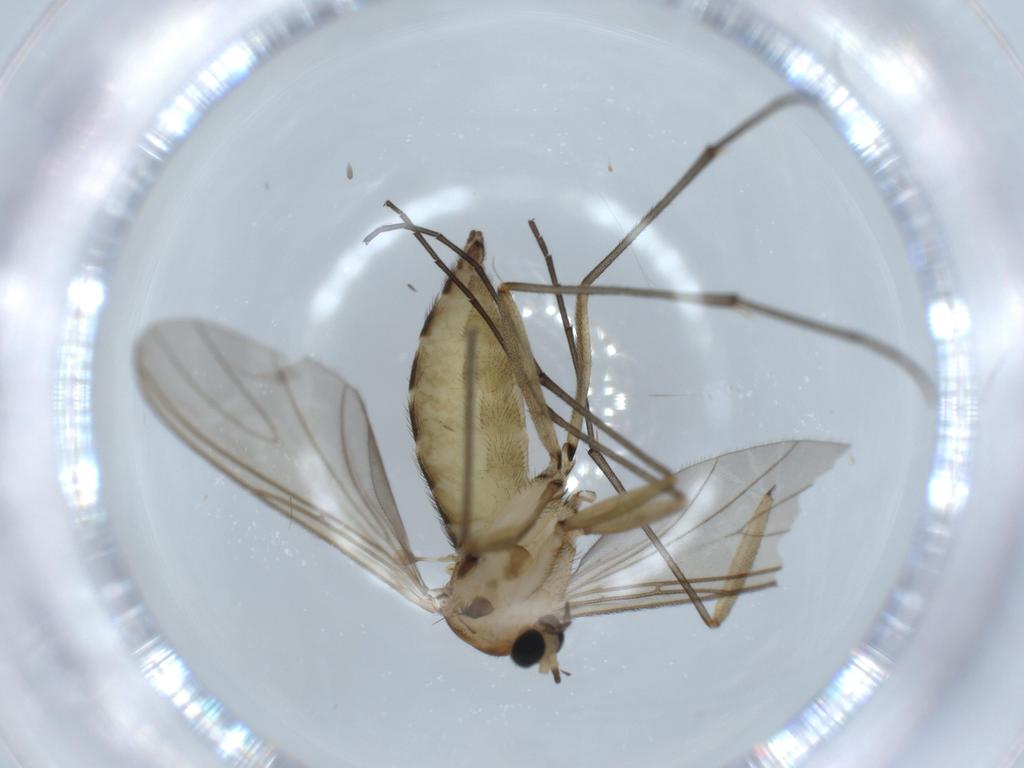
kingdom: Animalia
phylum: Arthropoda
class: Insecta
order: Diptera
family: Sciaridae
